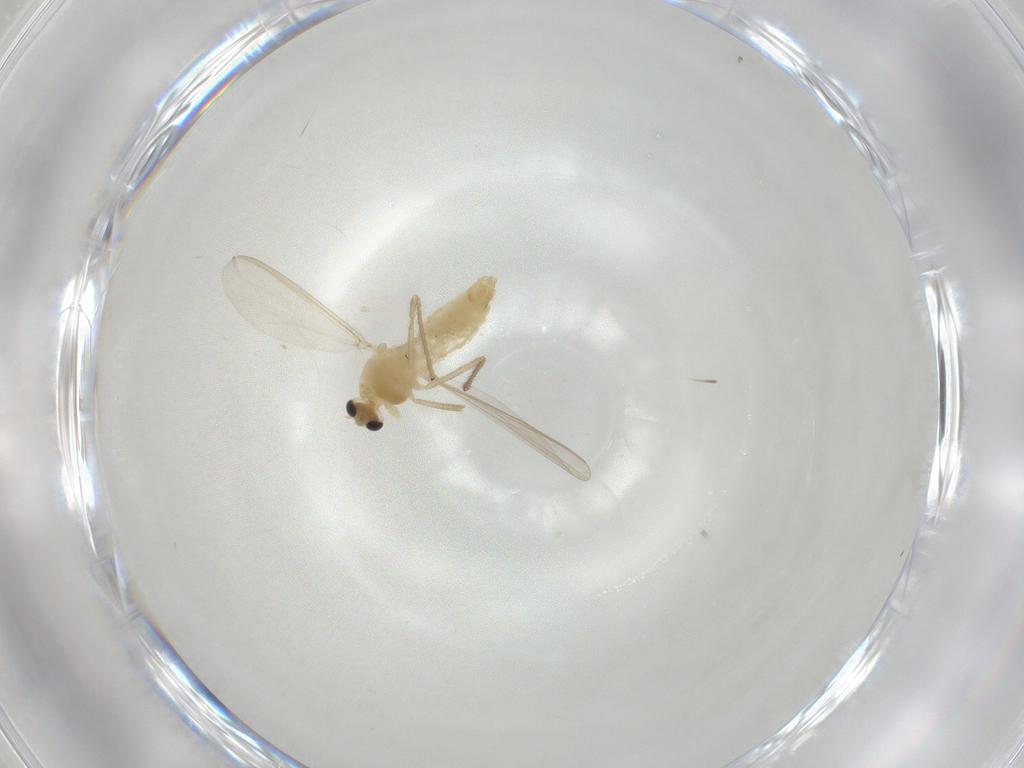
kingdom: Animalia
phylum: Arthropoda
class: Insecta
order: Diptera
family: Chironomidae
